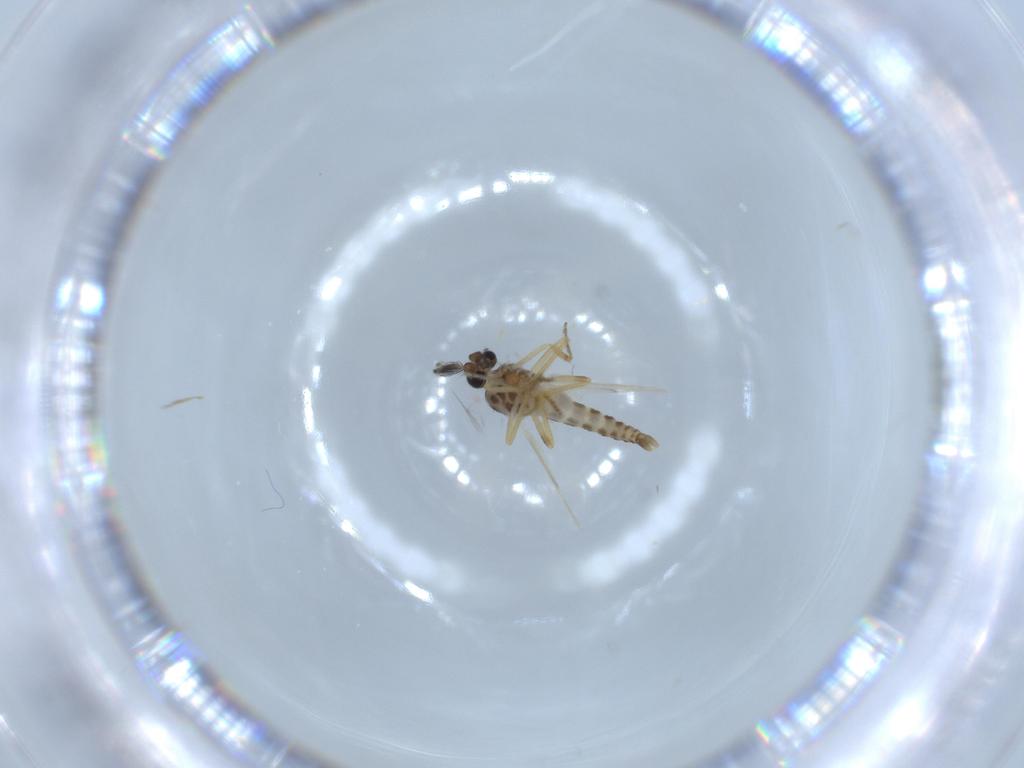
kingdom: Animalia
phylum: Arthropoda
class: Insecta
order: Diptera
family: Ceratopogonidae
